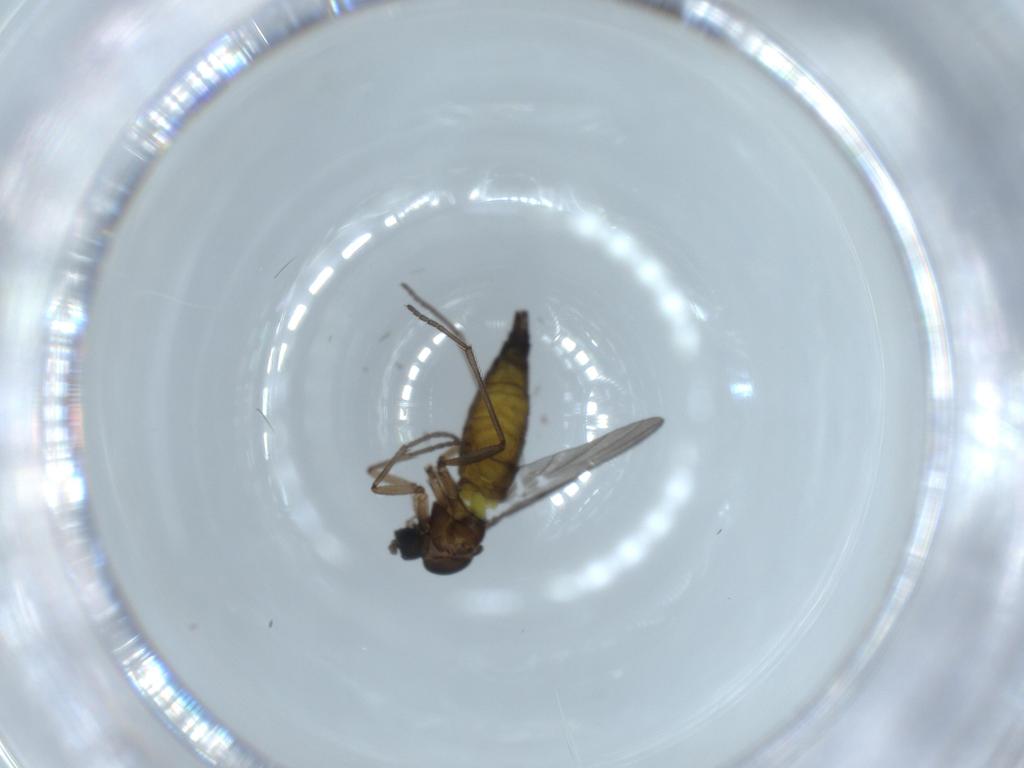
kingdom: Animalia
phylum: Arthropoda
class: Insecta
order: Diptera
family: Sciaridae
